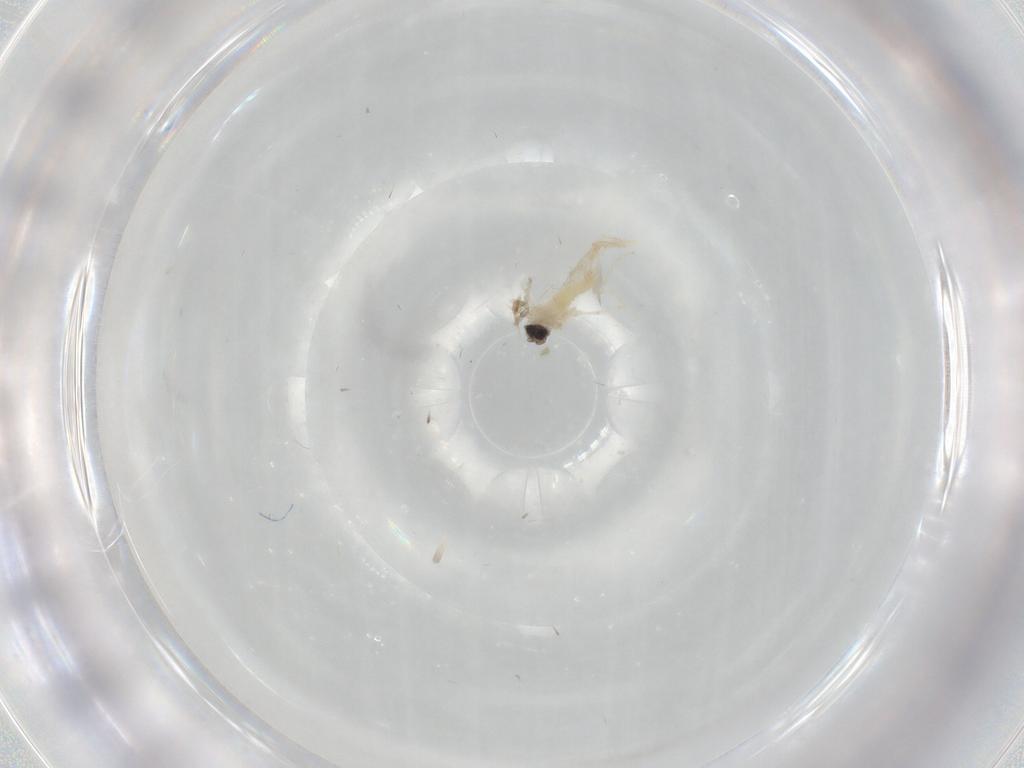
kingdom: Animalia
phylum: Arthropoda
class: Insecta
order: Diptera
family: Cecidomyiidae
